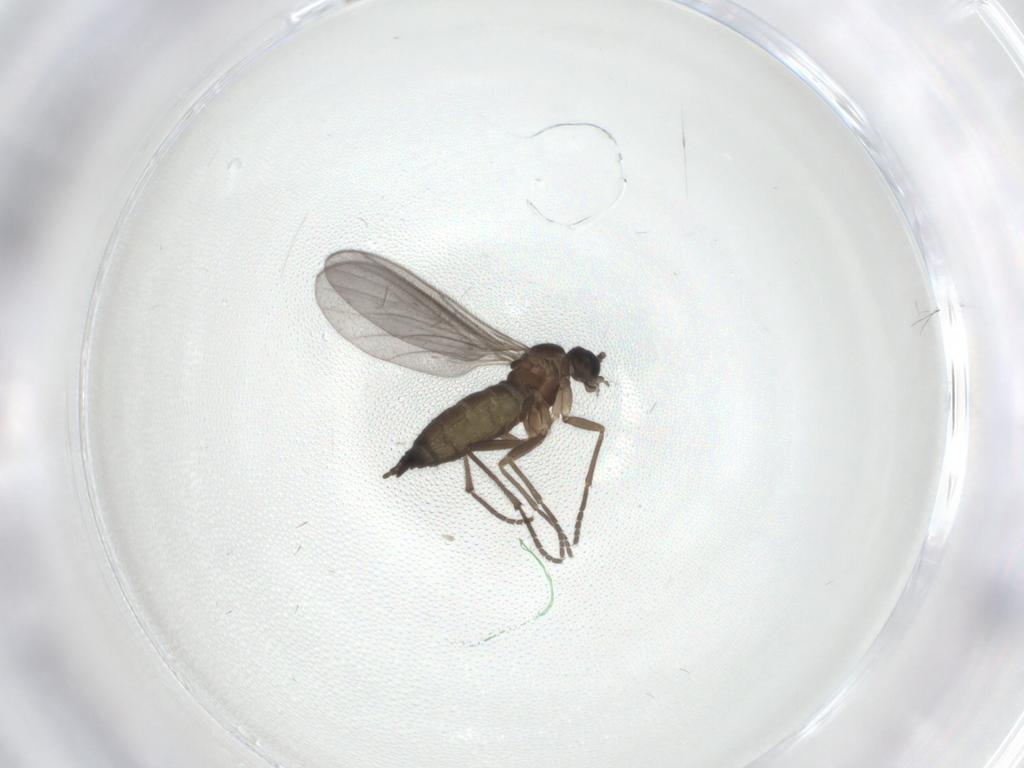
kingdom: Animalia
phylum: Arthropoda
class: Insecta
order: Diptera
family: Sciaridae
